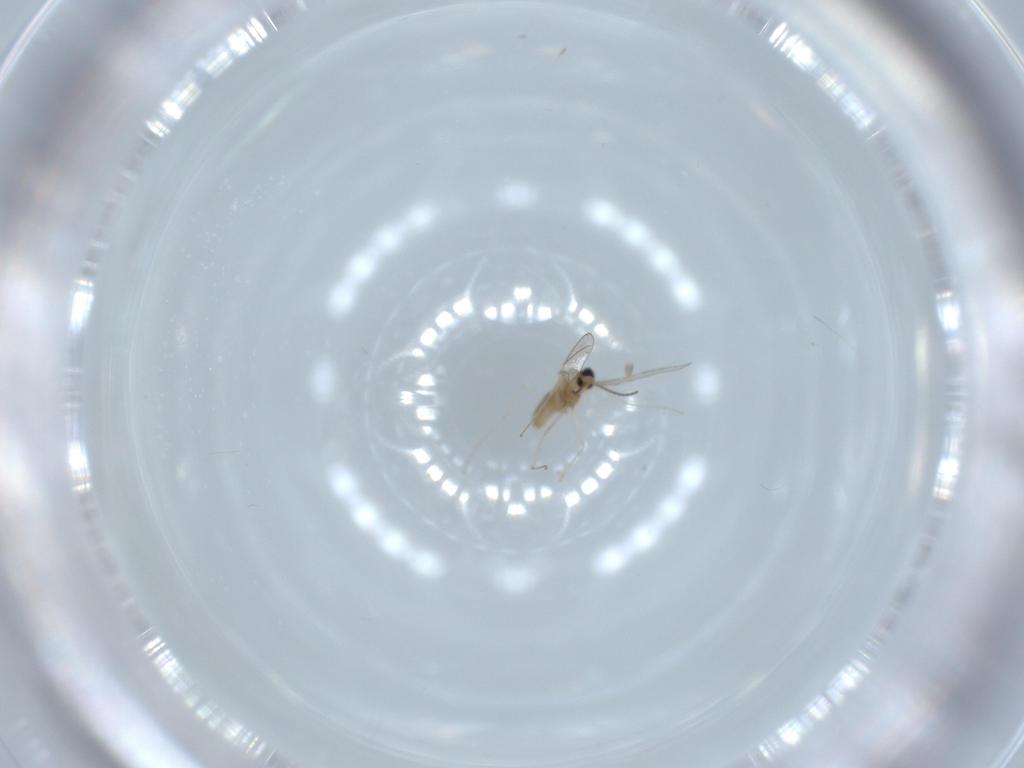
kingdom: Animalia
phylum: Arthropoda
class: Insecta
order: Diptera
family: Cecidomyiidae
